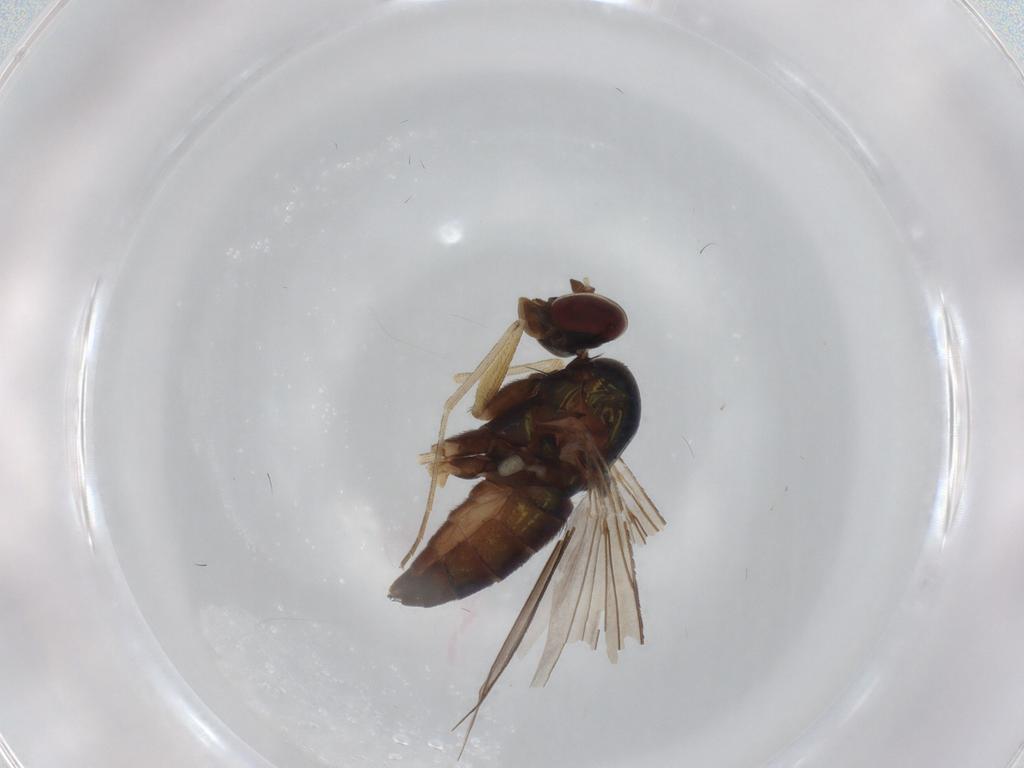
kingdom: Animalia
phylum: Arthropoda
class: Insecta
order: Diptera
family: Dolichopodidae
